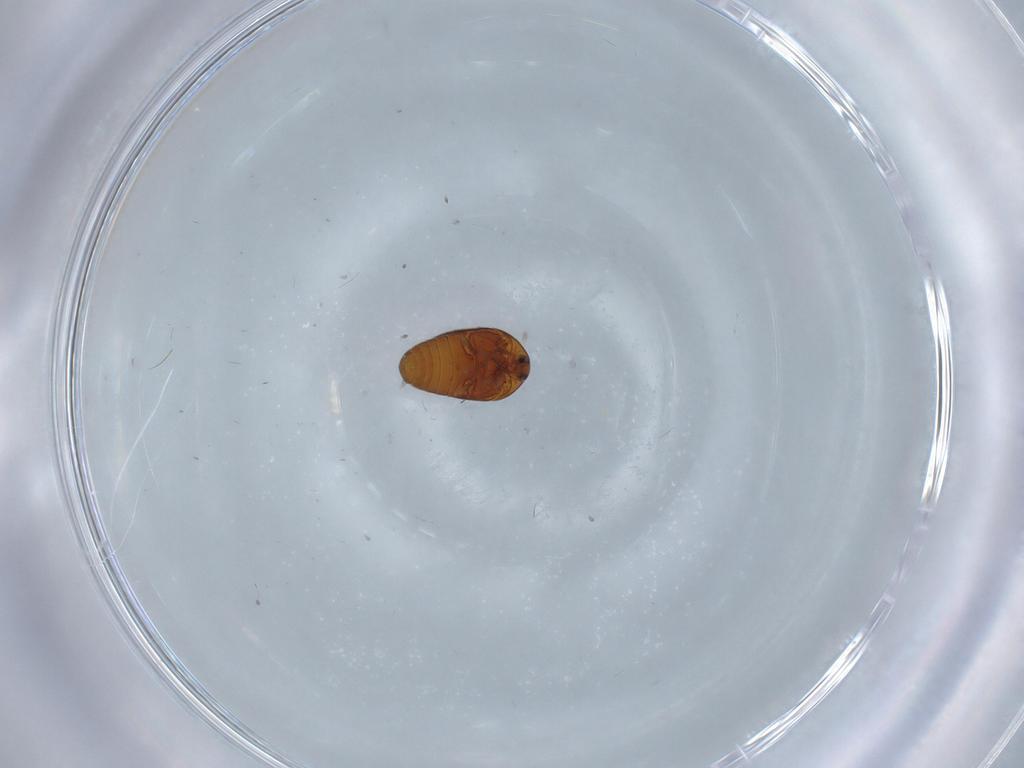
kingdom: Animalia
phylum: Arthropoda
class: Insecta
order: Coleoptera
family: Corylophidae
